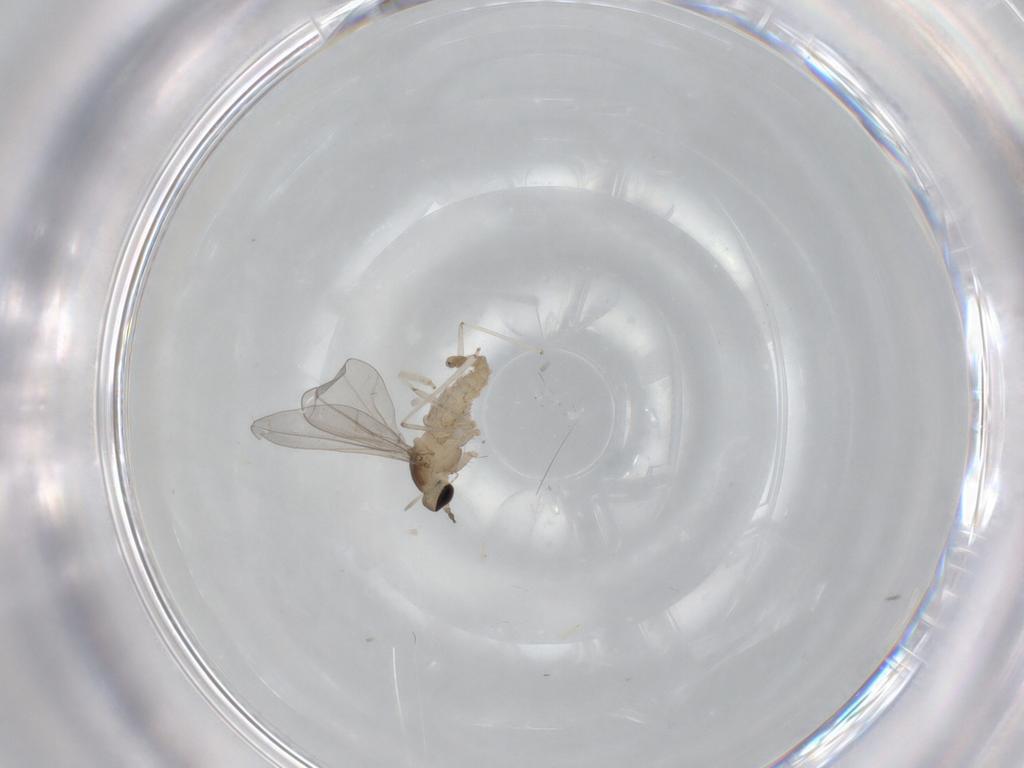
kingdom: Animalia
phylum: Arthropoda
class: Insecta
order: Diptera
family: Cecidomyiidae
